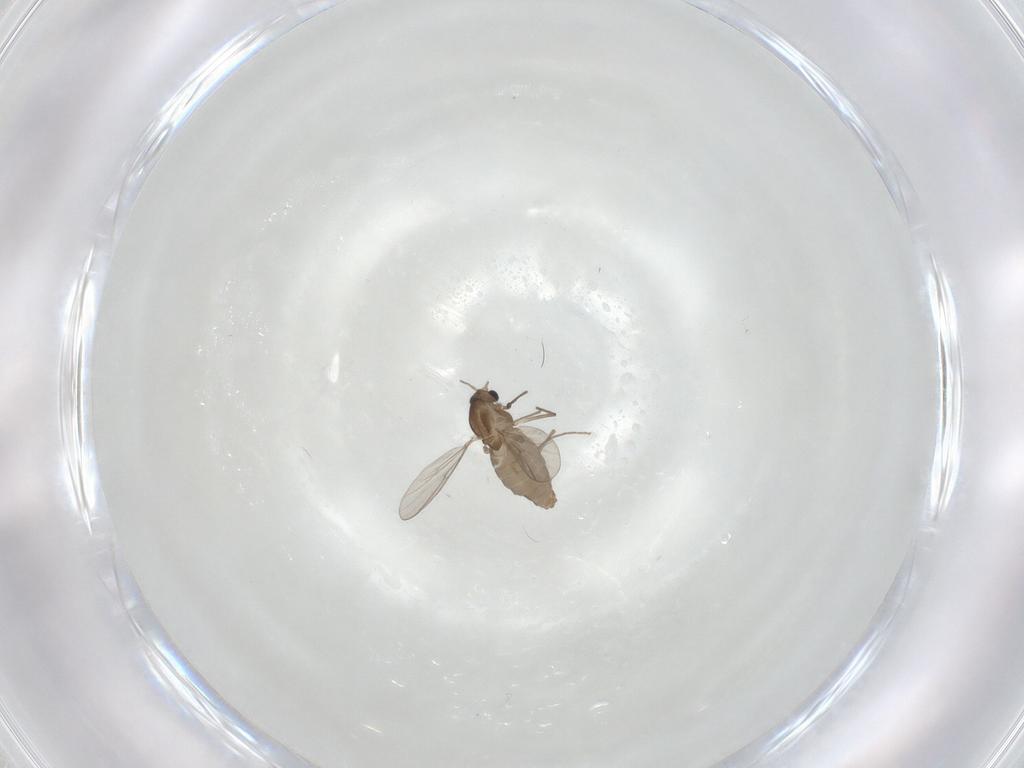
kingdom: Animalia
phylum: Arthropoda
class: Insecta
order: Diptera
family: Chironomidae
